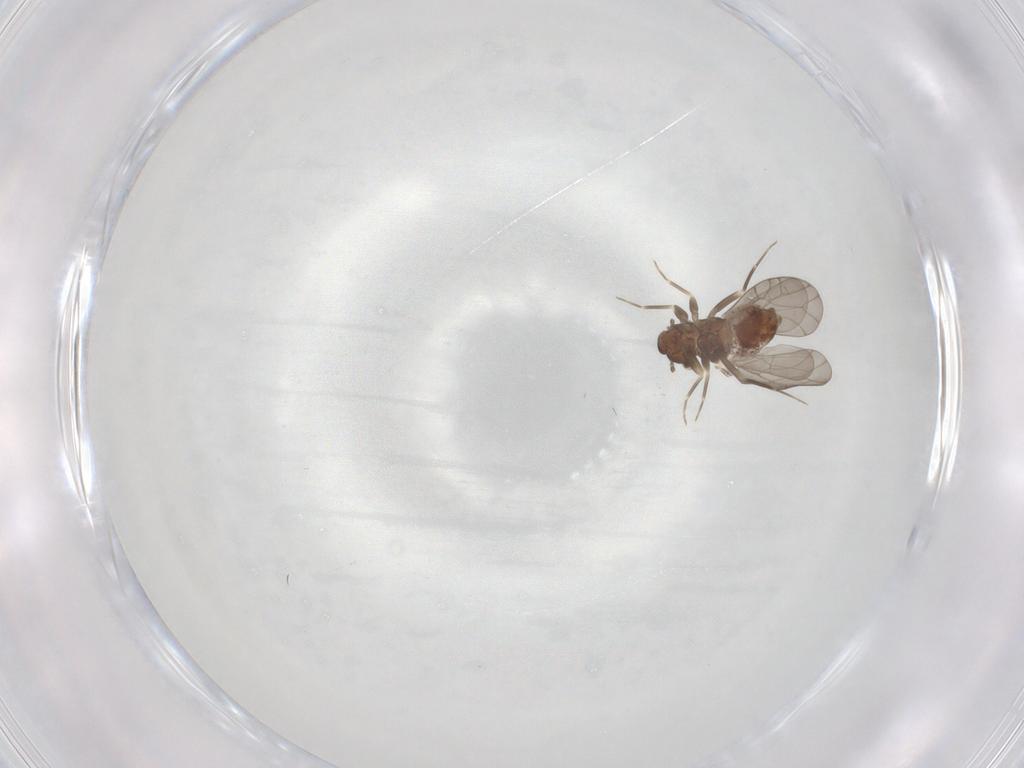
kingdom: Animalia
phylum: Arthropoda
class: Insecta
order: Psocodea
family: Lepidopsocidae
